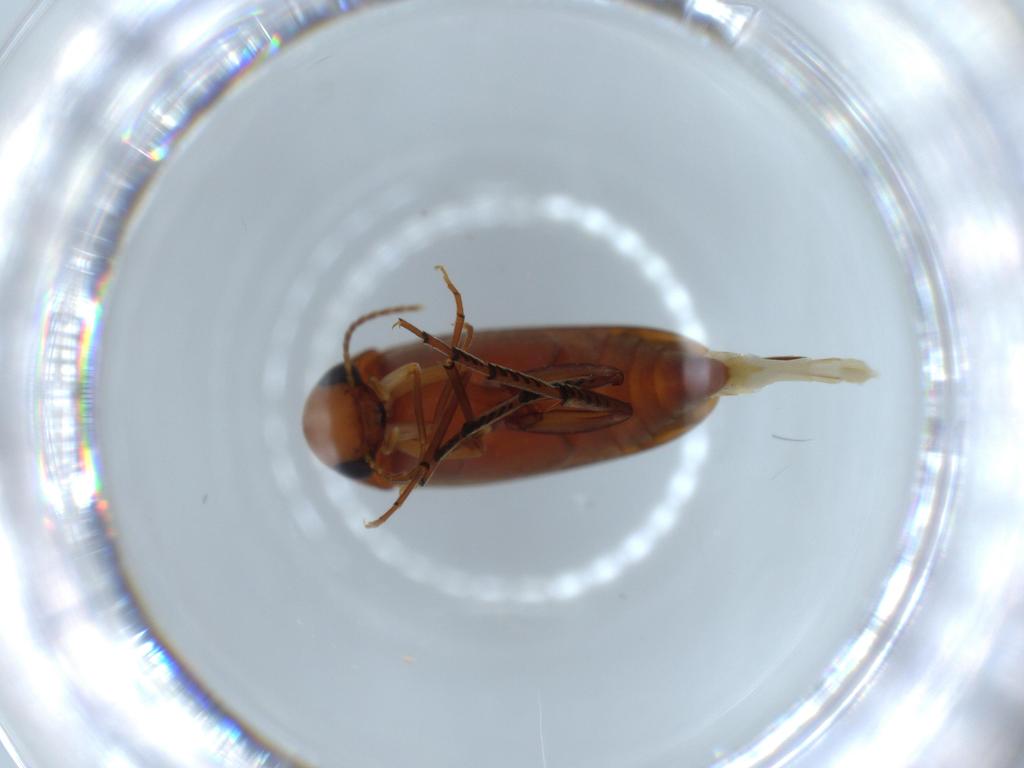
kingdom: Animalia
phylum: Arthropoda
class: Insecta
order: Coleoptera
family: Mordellidae
